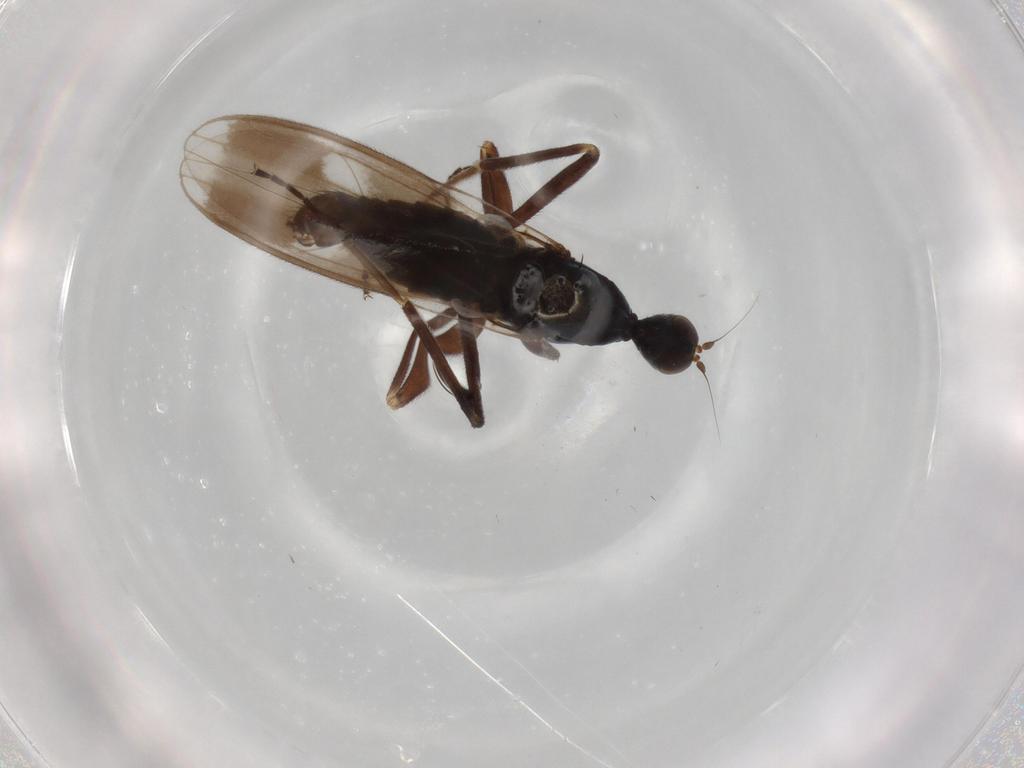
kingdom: Animalia
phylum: Arthropoda
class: Insecta
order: Diptera
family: Hybotidae
